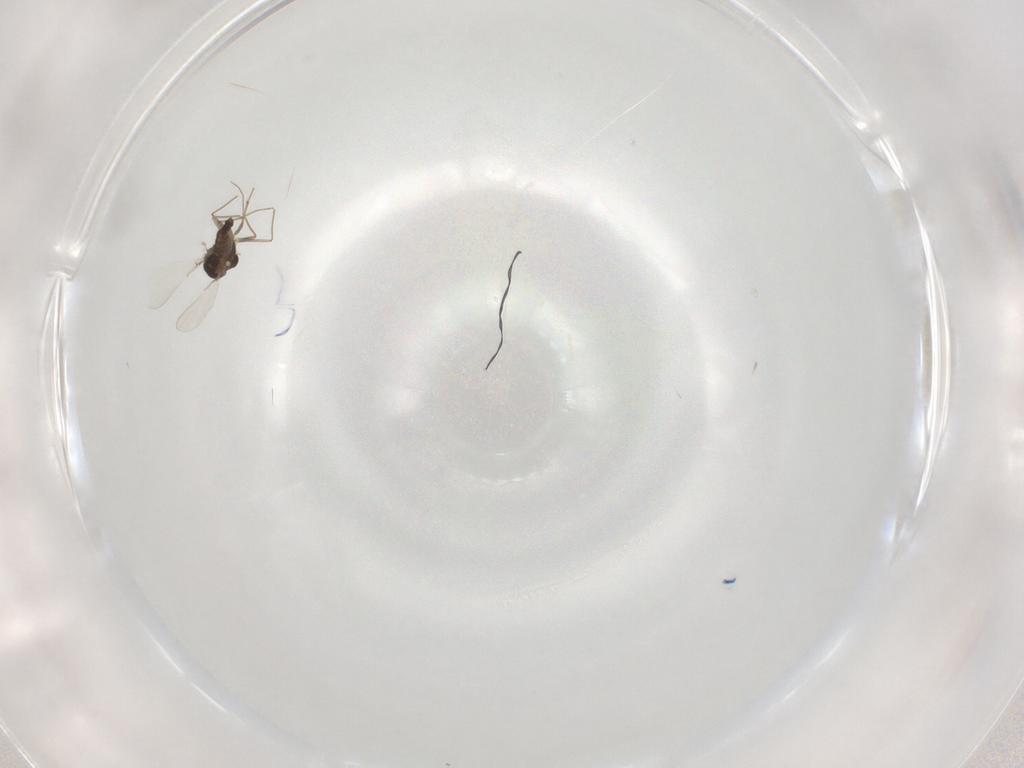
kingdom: Animalia
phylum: Arthropoda
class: Insecta
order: Diptera
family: Chironomidae
